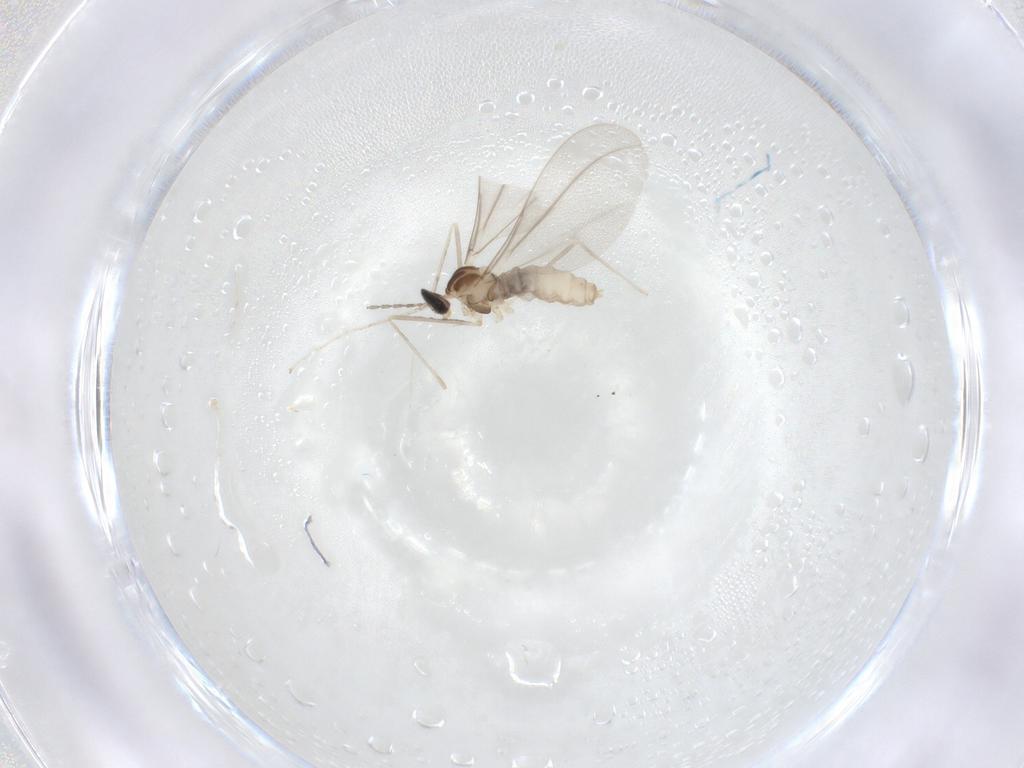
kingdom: Animalia
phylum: Arthropoda
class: Insecta
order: Diptera
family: Cecidomyiidae
